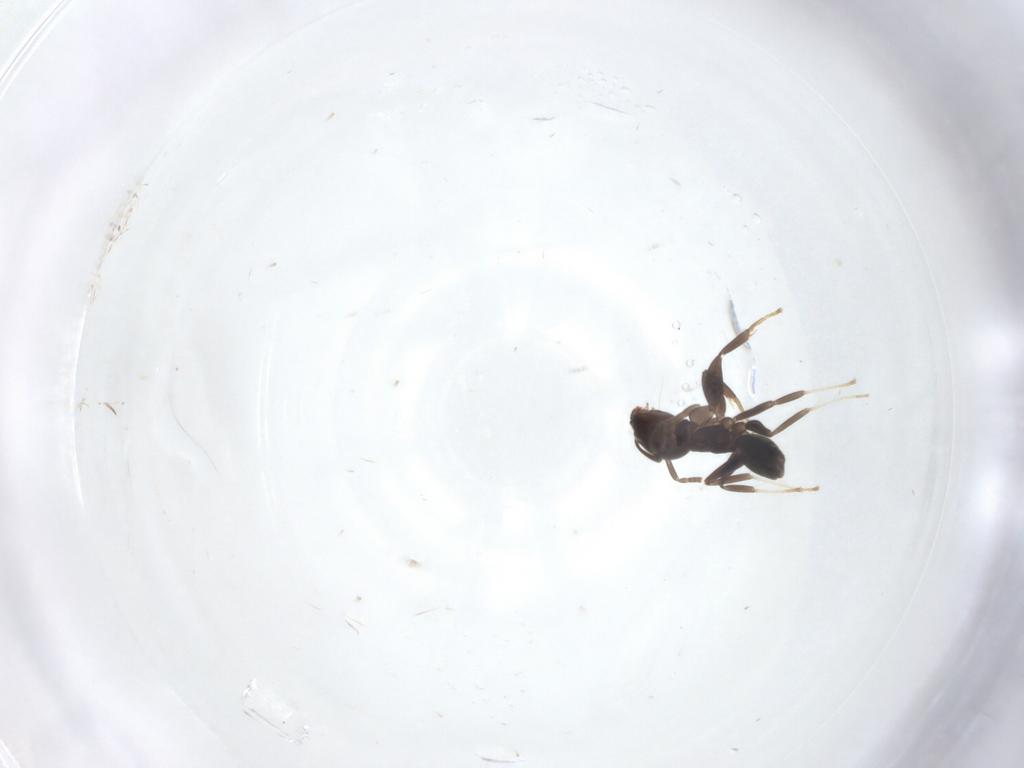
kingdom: Animalia
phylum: Arthropoda
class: Insecta
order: Hymenoptera
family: Formicidae
